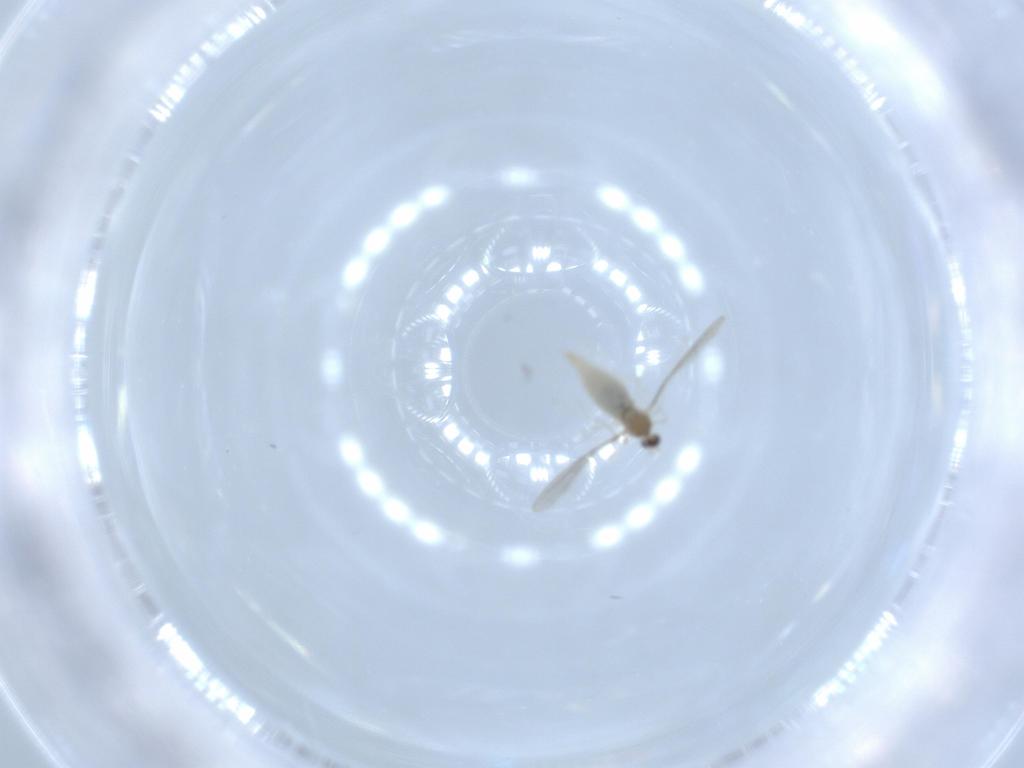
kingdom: Animalia
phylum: Arthropoda
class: Insecta
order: Diptera
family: Cecidomyiidae
